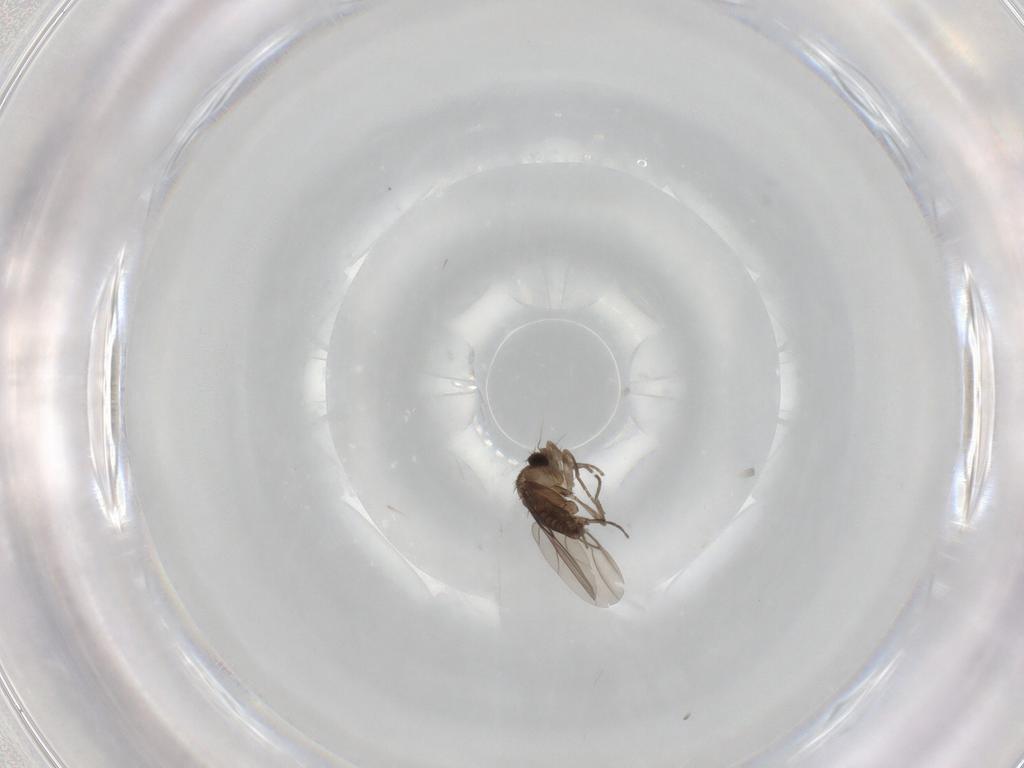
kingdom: Animalia
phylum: Arthropoda
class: Insecta
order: Diptera
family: Phoridae
